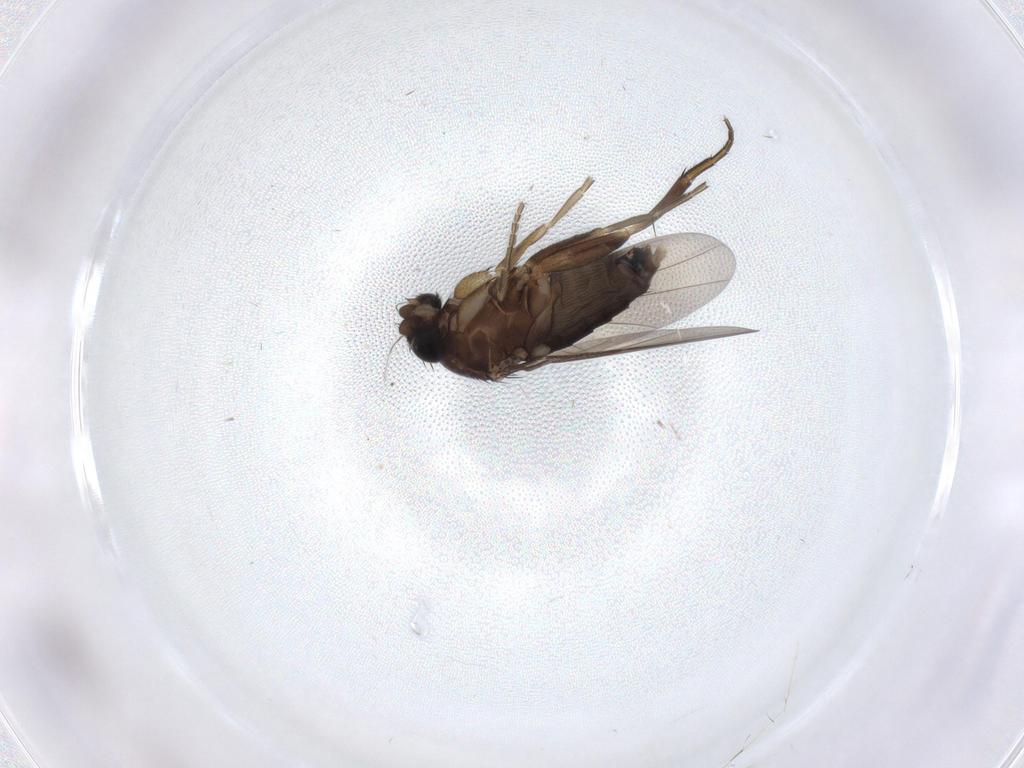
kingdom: Animalia
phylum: Arthropoda
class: Insecta
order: Diptera
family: Phoridae
